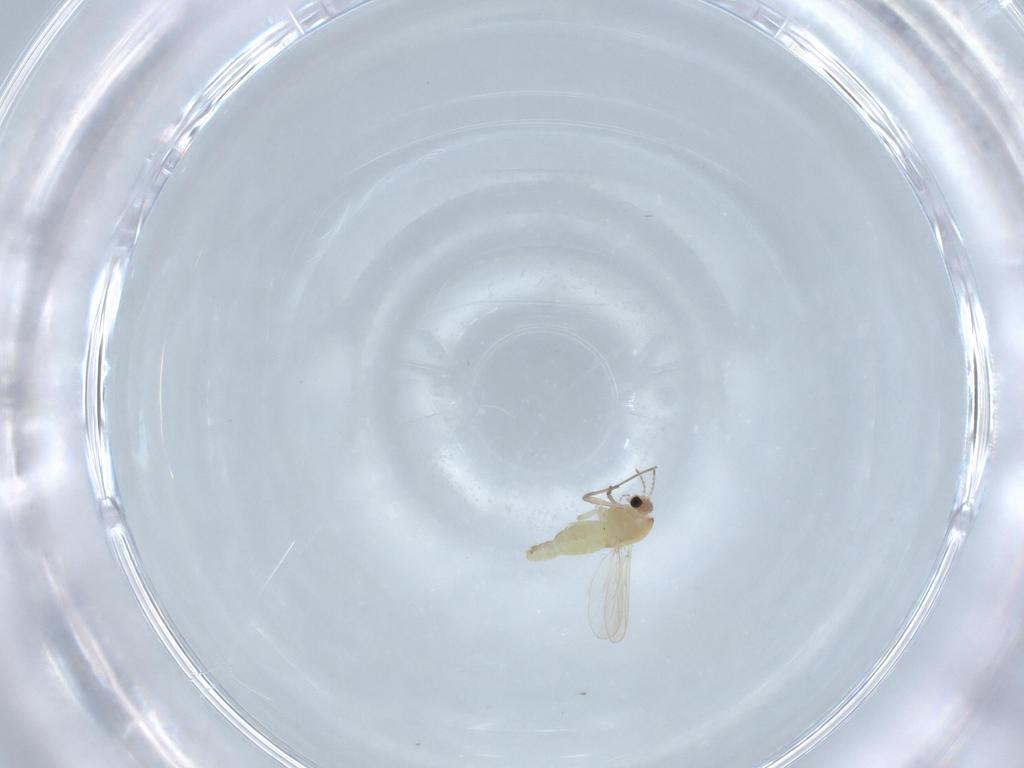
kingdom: Animalia
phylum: Arthropoda
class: Insecta
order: Diptera
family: Chironomidae
